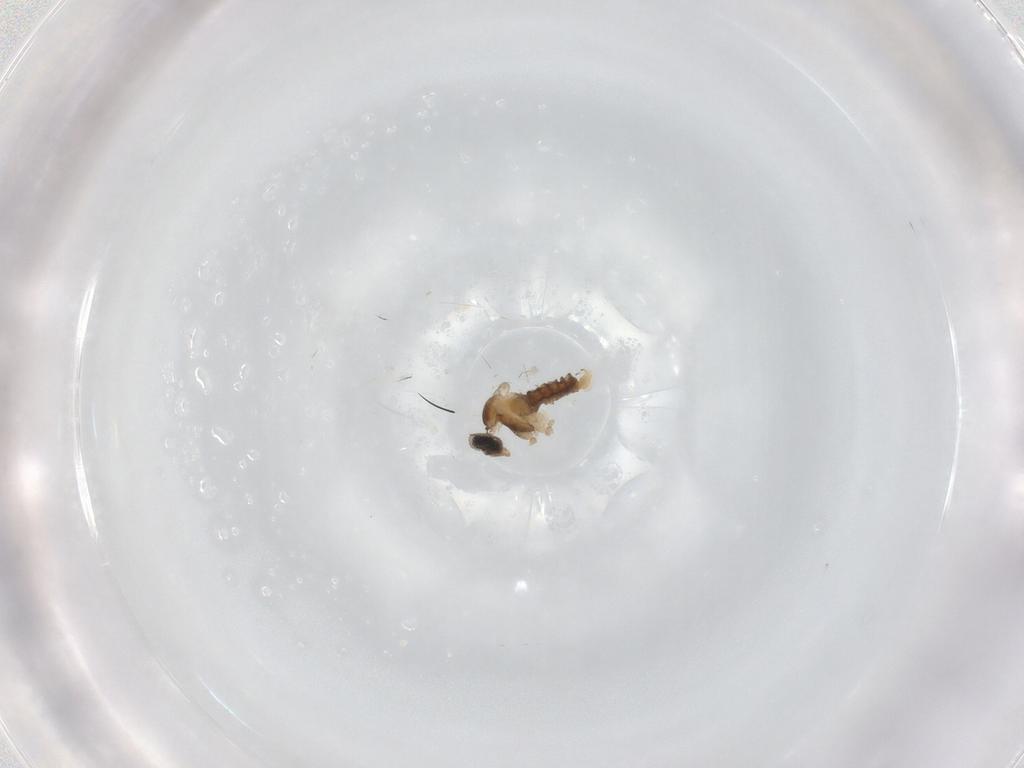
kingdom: Animalia
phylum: Arthropoda
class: Insecta
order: Diptera
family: Cecidomyiidae
